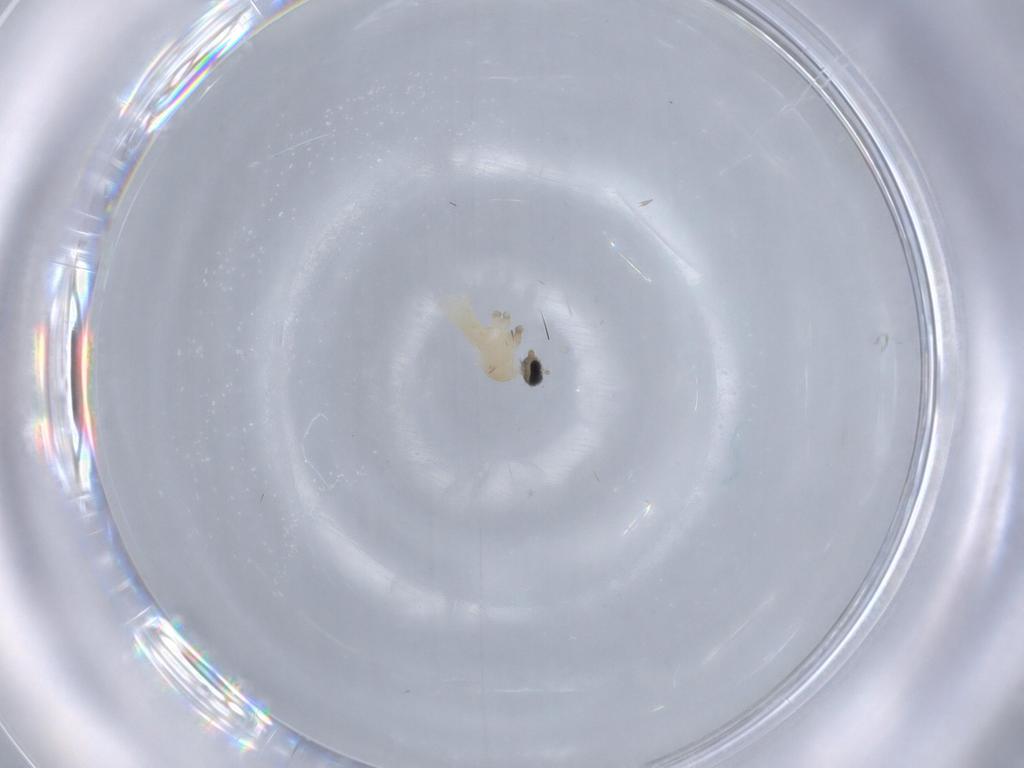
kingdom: Animalia
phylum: Arthropoda
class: Insecta
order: Diptera
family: Cecidomyiidae
